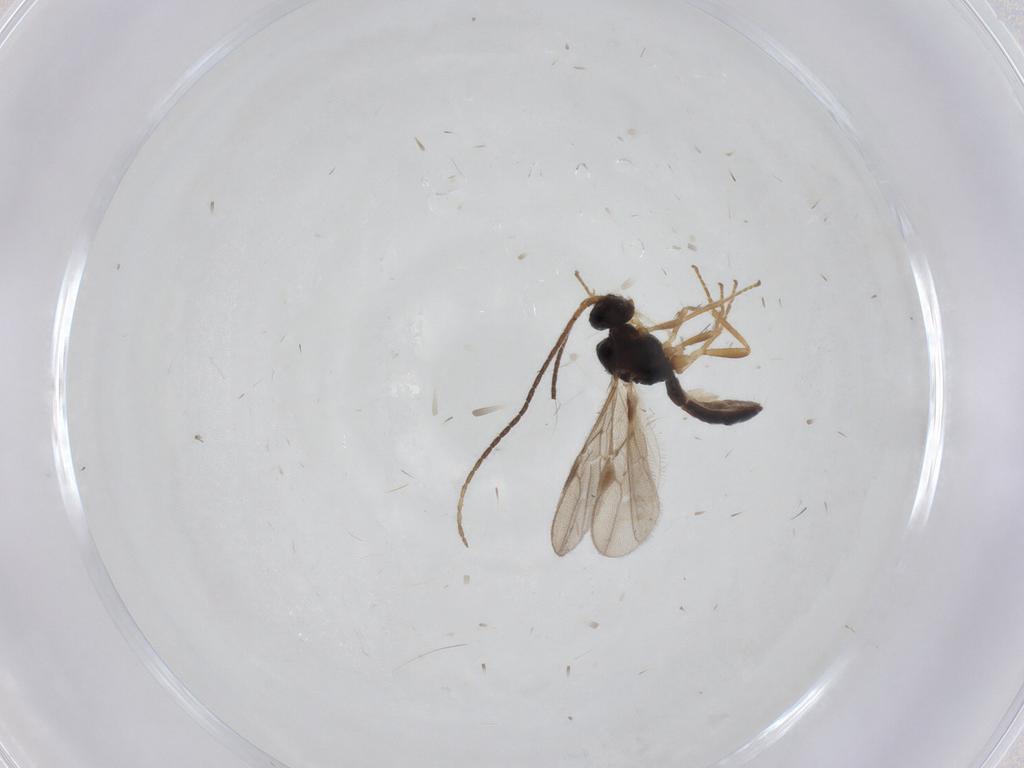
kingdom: Animalia
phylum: Arthropoda
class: Insecta
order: Hymenoptera
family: Braconidae
